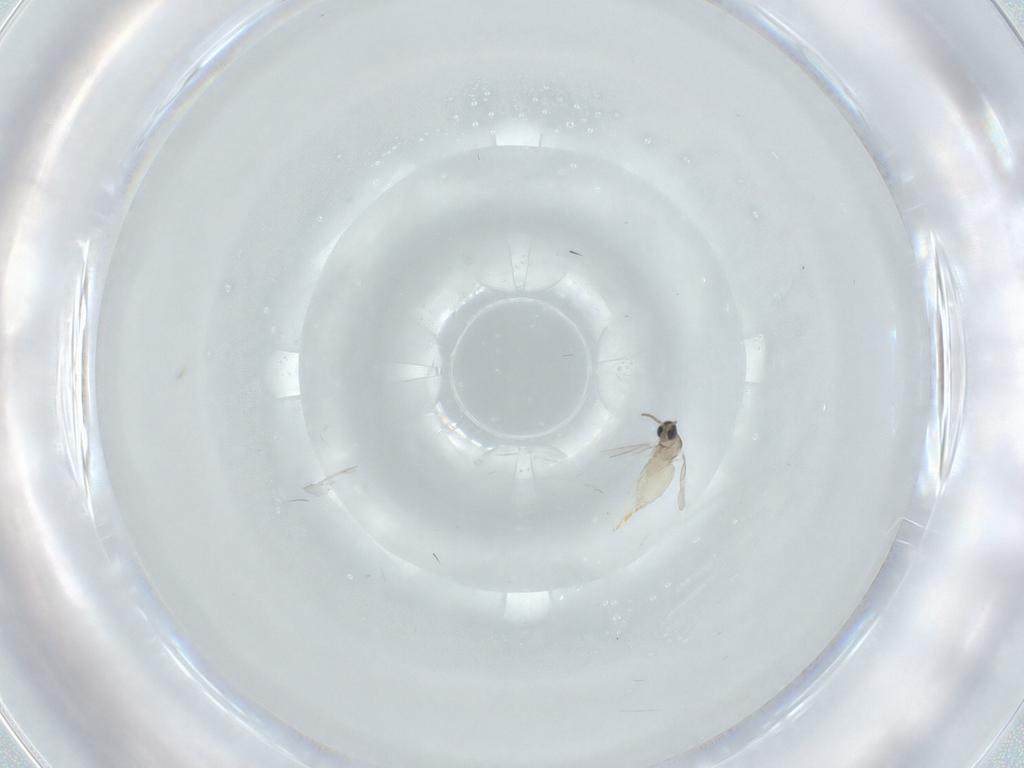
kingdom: Animalia
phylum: Arthropoda
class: Insecta
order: Diptera
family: Cecidomyiidae
